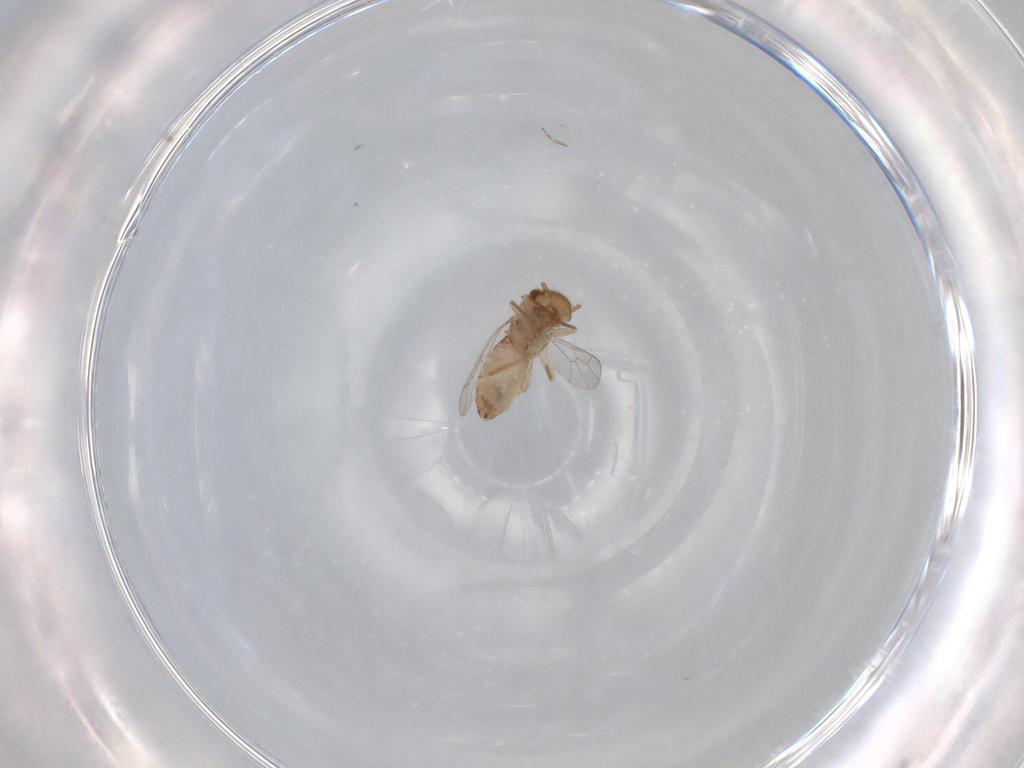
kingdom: Animalia
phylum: Arthropoda
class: Insecta
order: Psocodea
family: Ectopsocidae
